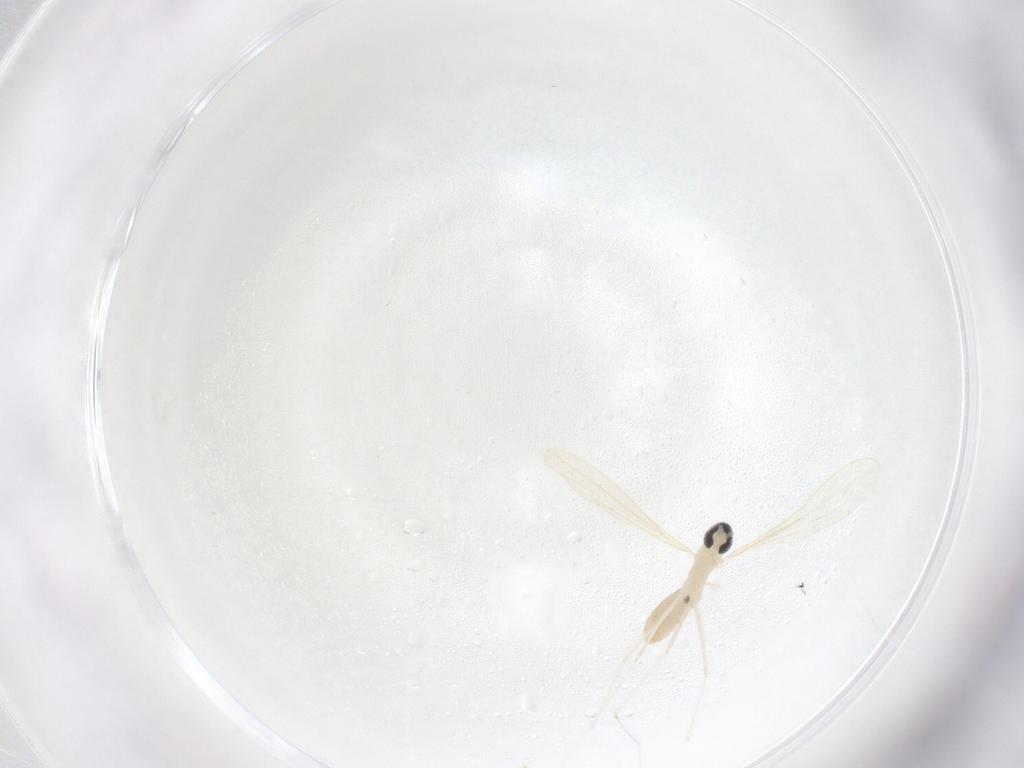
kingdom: Animalia
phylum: Arthropoda
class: Insecta
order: Diptera
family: Cecidomyiidae
